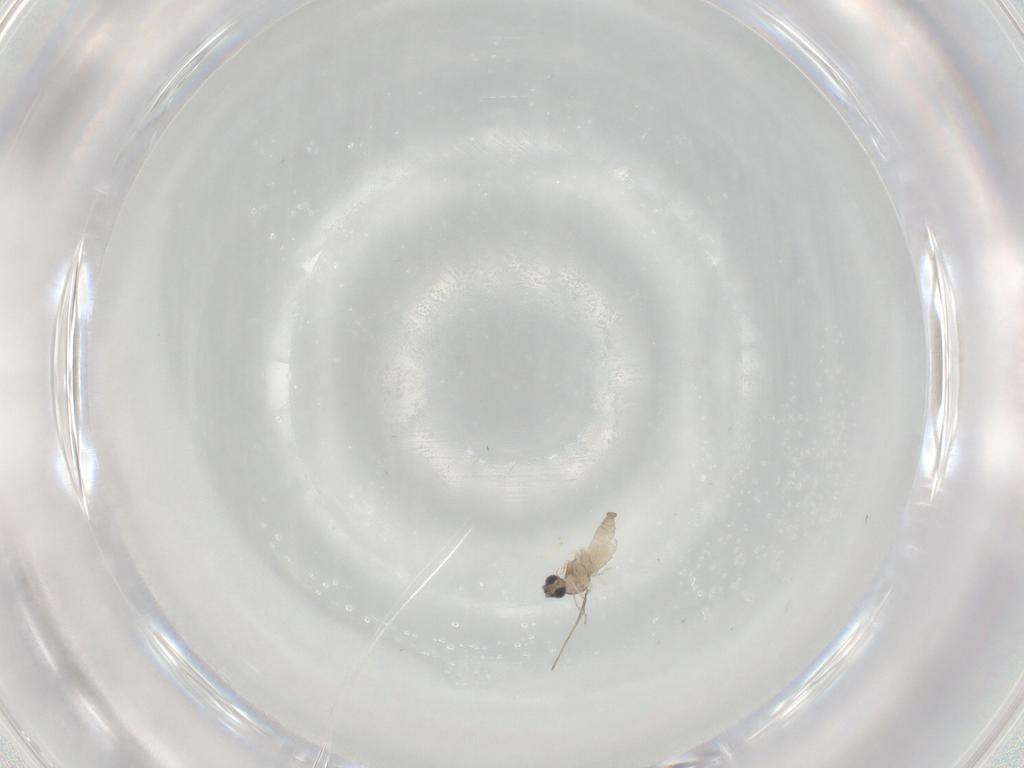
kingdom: Animalia
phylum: Arthropoda
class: Insecta
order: Diptera
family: Cecidomyiidae
